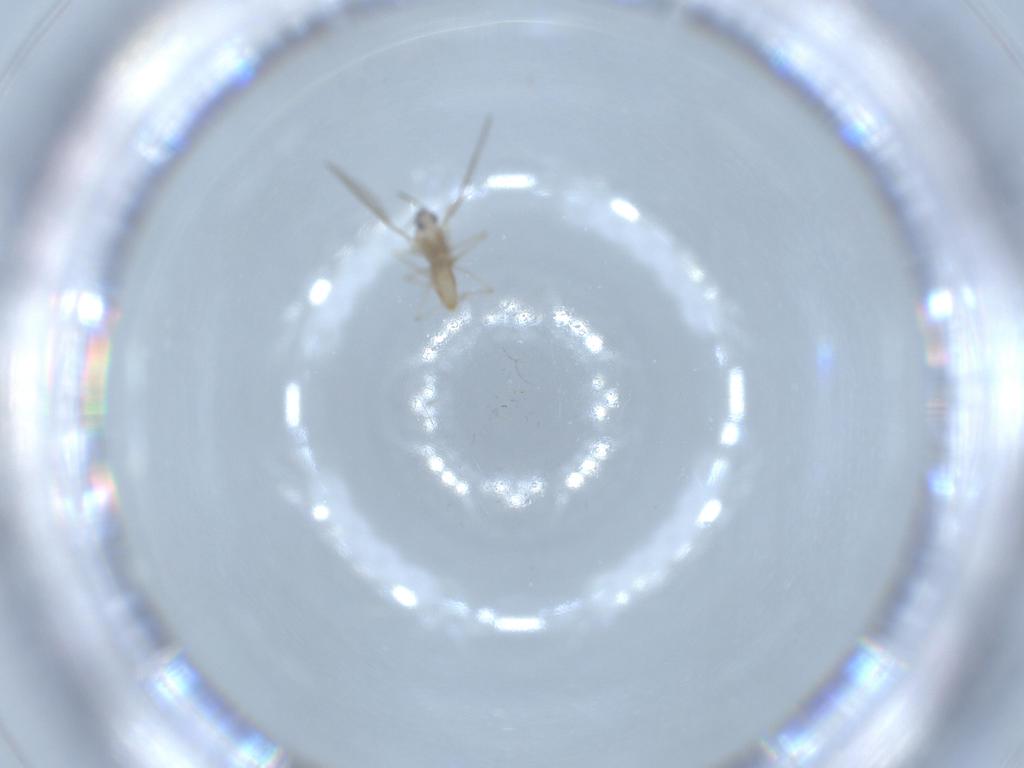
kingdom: Animalia
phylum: Arthropoda
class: Insecta
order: Diptera
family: Cecidomyiidae
